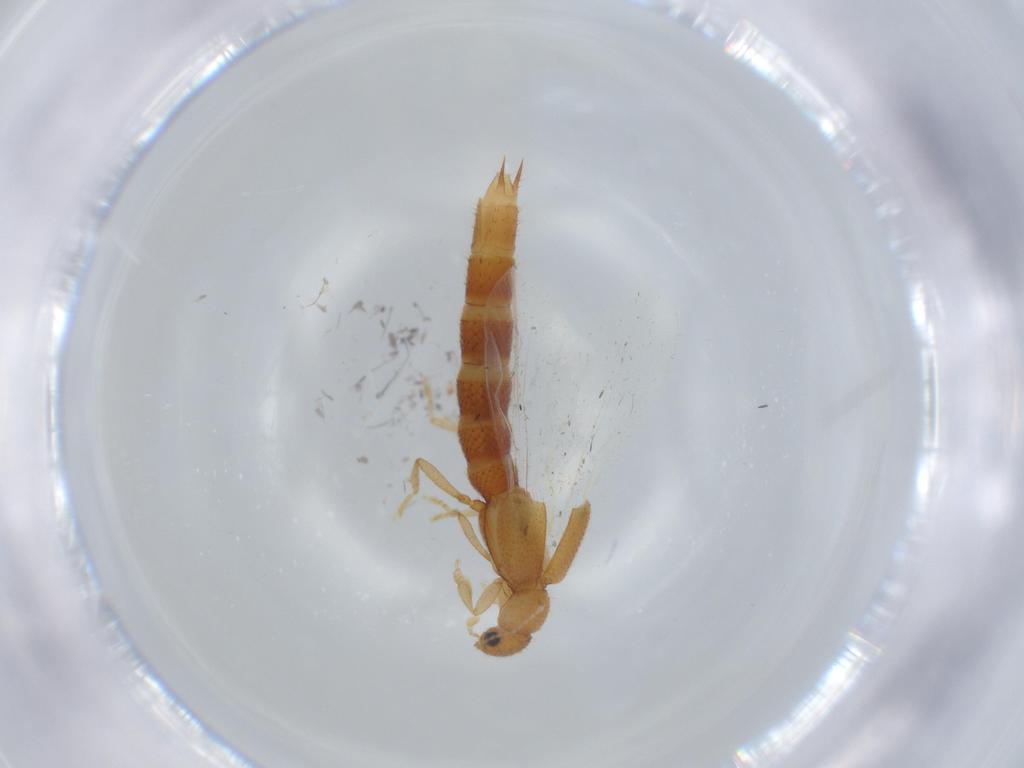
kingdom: Animalia
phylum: Arthropoda
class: Insecta
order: Coleoptera
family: Staphylinidae
